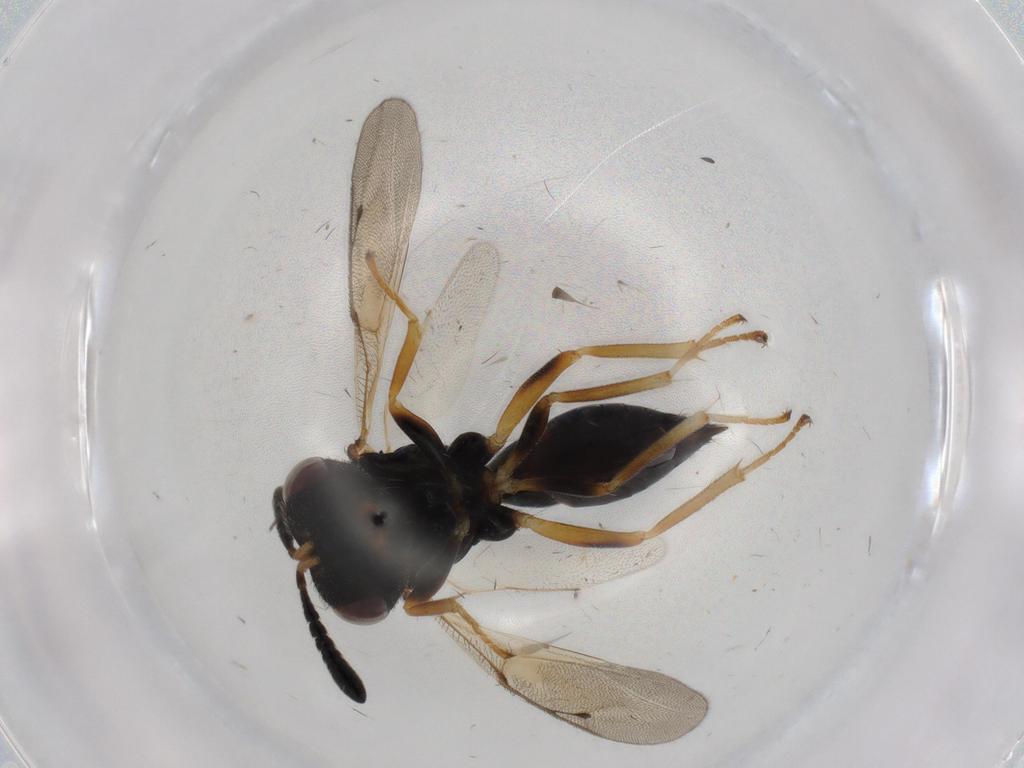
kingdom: Animalia
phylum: Arthropoda
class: Insecta
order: Hymenoptera
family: Pteromalidae
